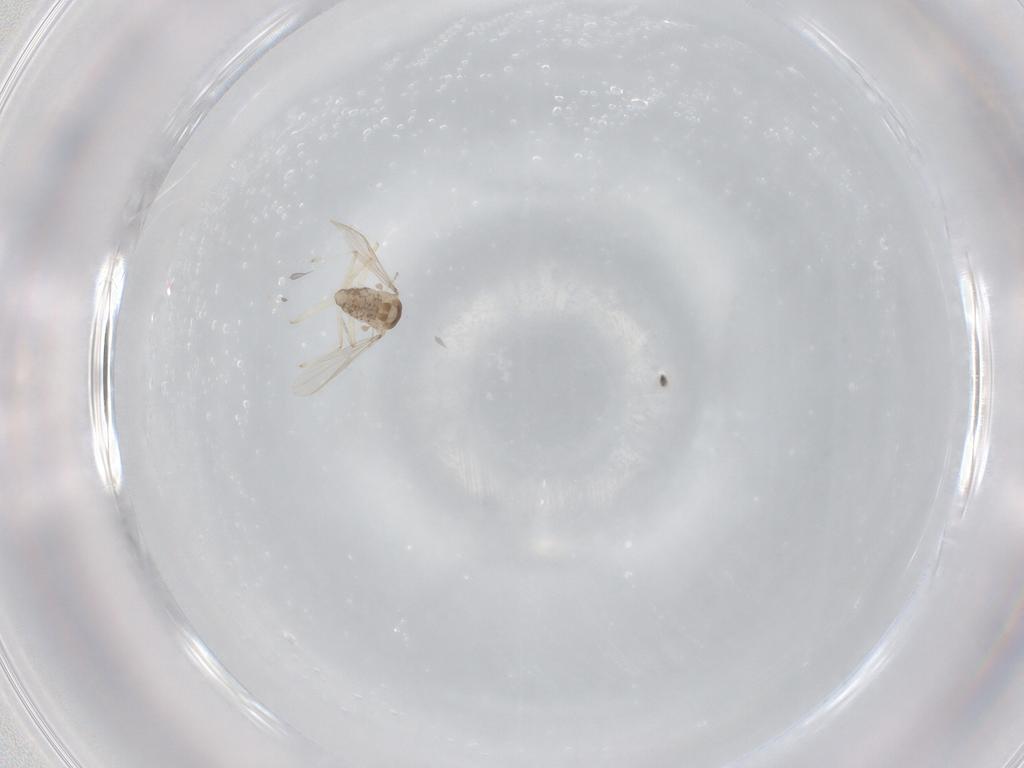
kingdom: Animalia
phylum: Arthropoda
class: Insecta
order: Diptera
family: Chironomidae
